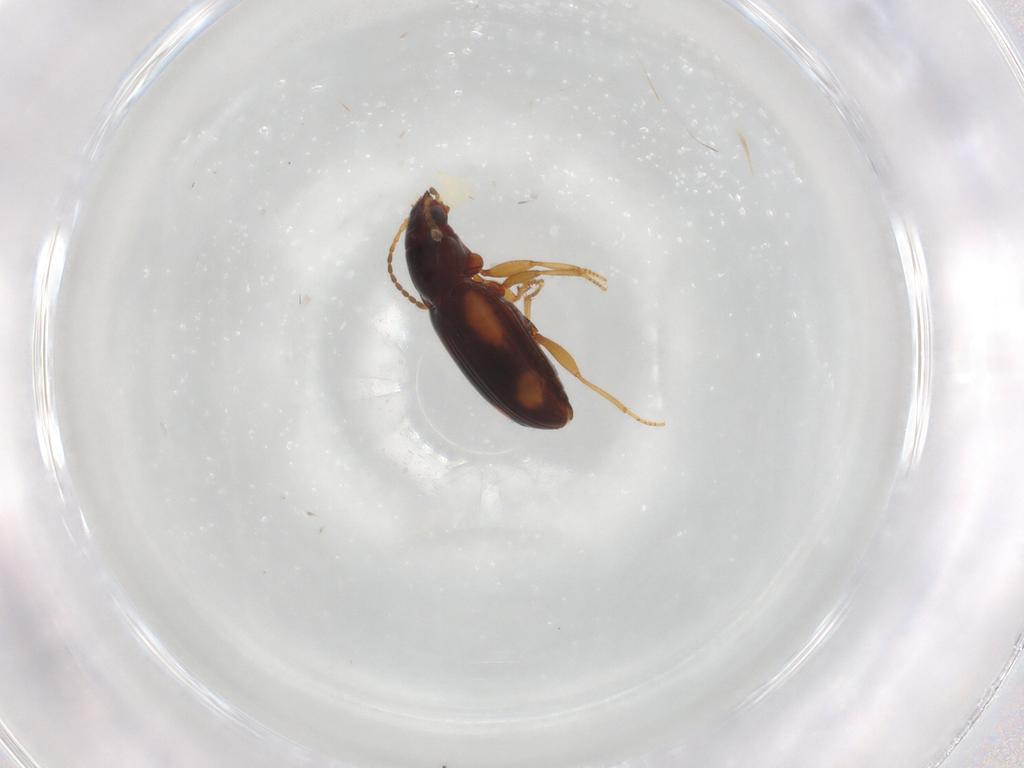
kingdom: Animalia
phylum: Arthropoda
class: Insecta
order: Coleoptera
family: Carabidae
